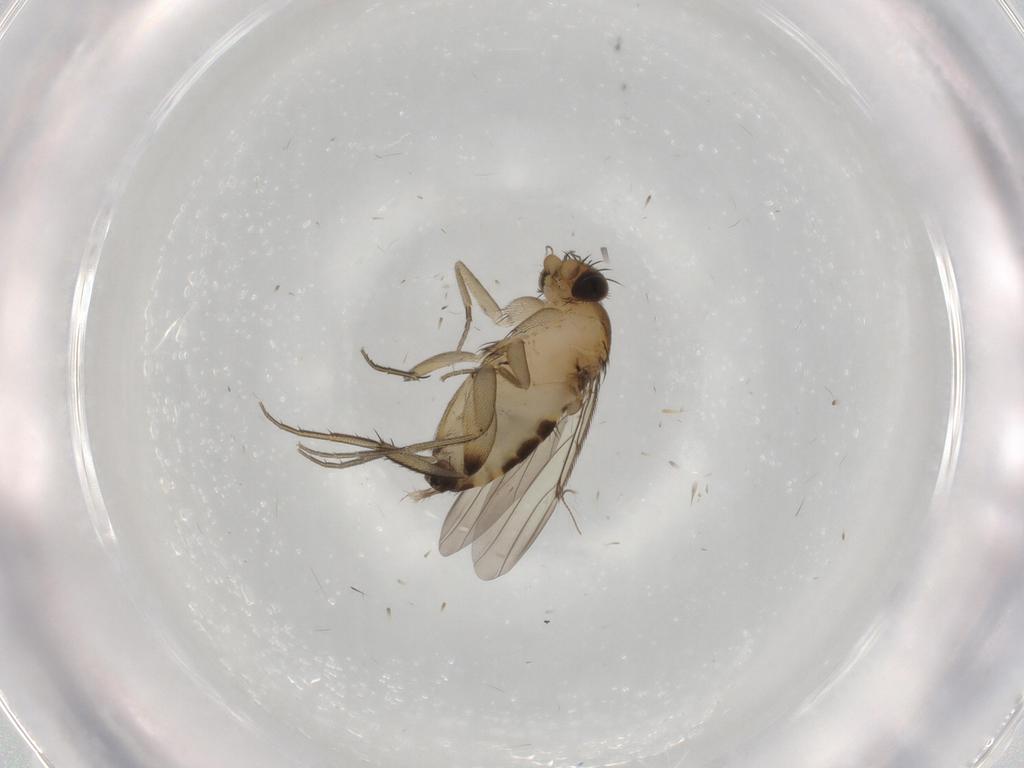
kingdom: Animalia
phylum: Arthropoda
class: Insecta
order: Diptera
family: Phoridae
